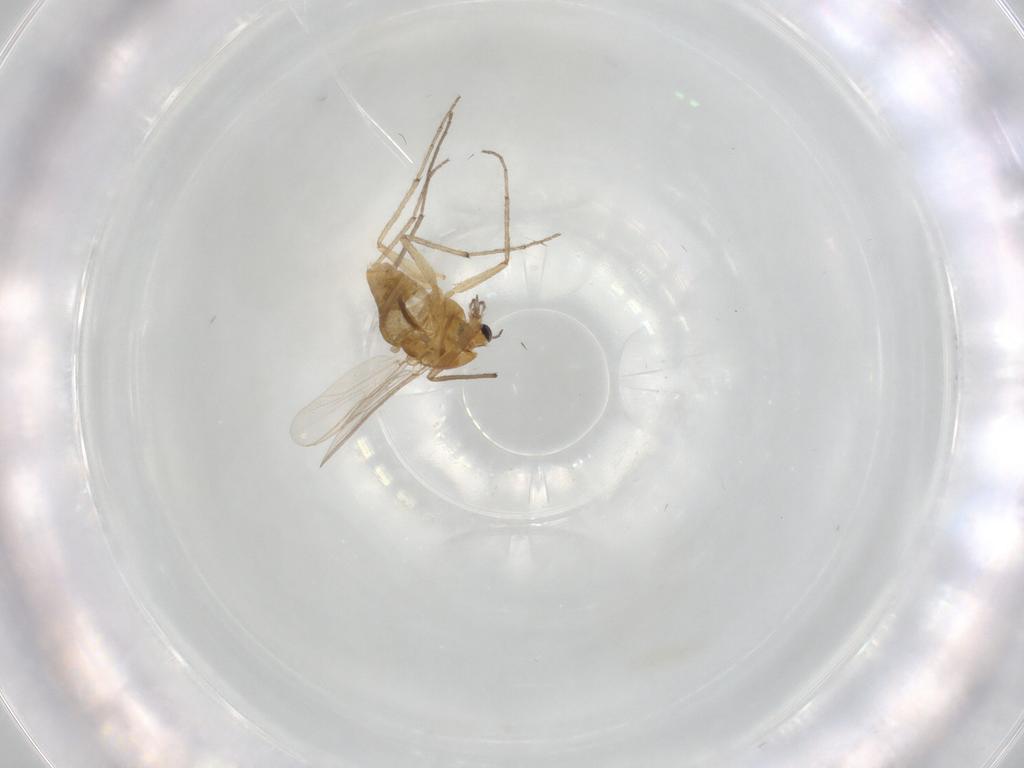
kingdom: Animalia
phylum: Arthropoda
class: Insecta
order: Diptera
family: Chironomidae
